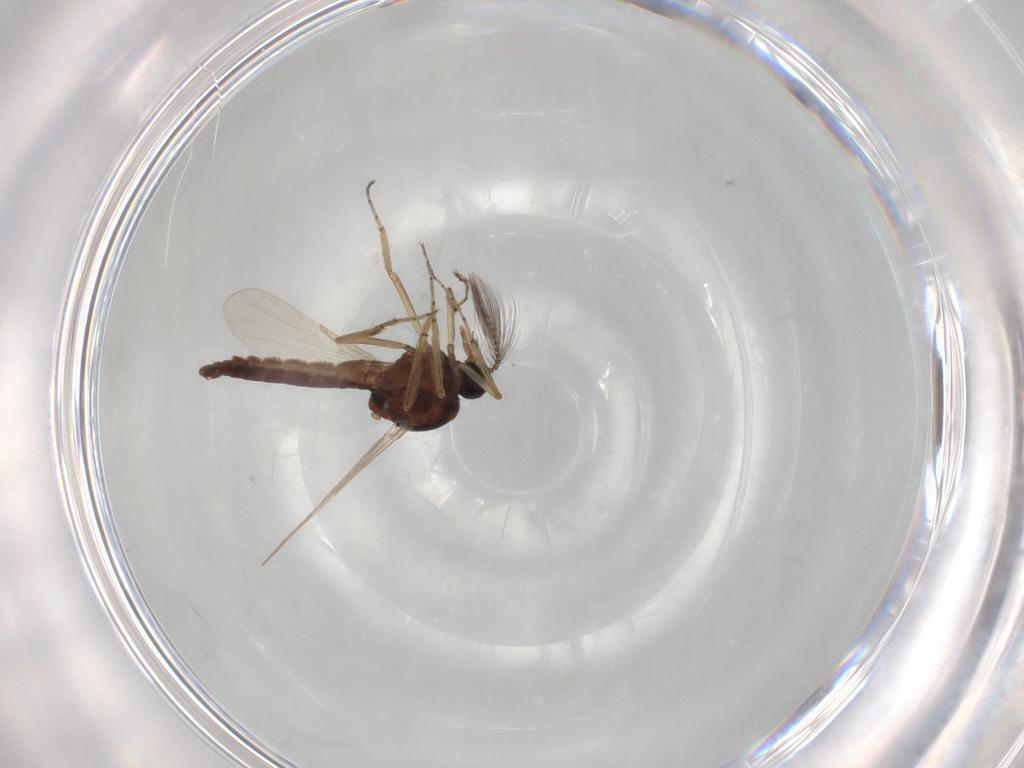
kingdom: Animalia
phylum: Arthropoda
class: Insecta
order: Diptera
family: Ceratopogonidae
